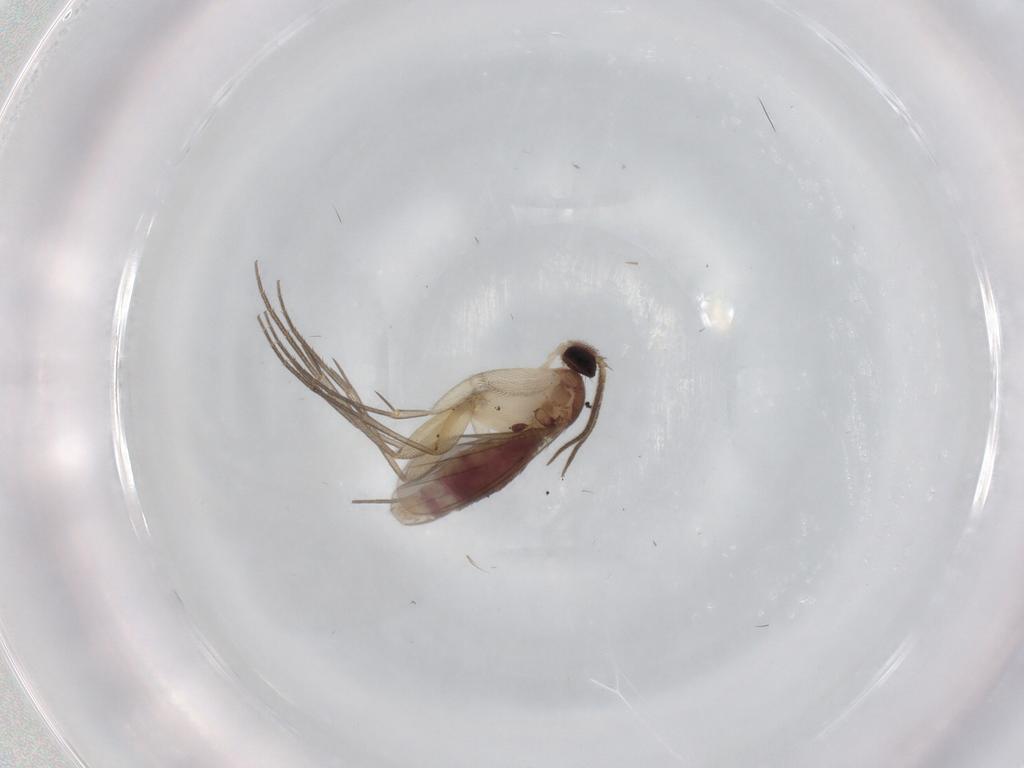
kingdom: Animalia
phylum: Arthropoda
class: Insecta
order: Diptera
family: Mycetophilidae
